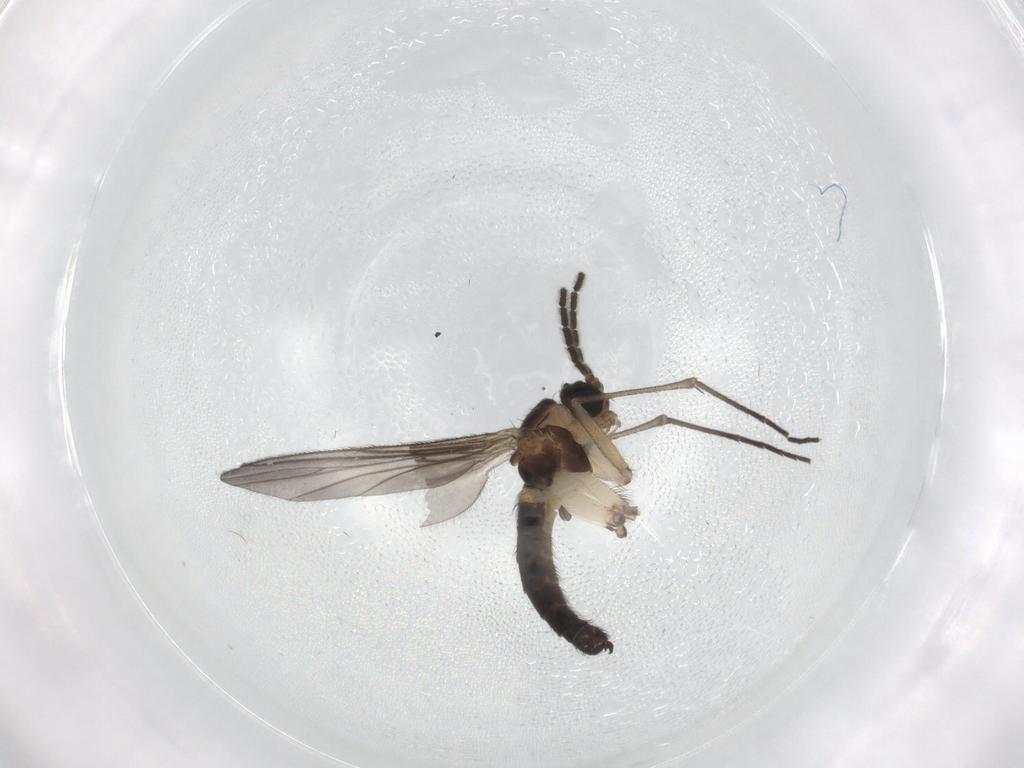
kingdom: Animalia
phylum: Arthropoda
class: Insecta
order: Diptera
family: Sciaridae
